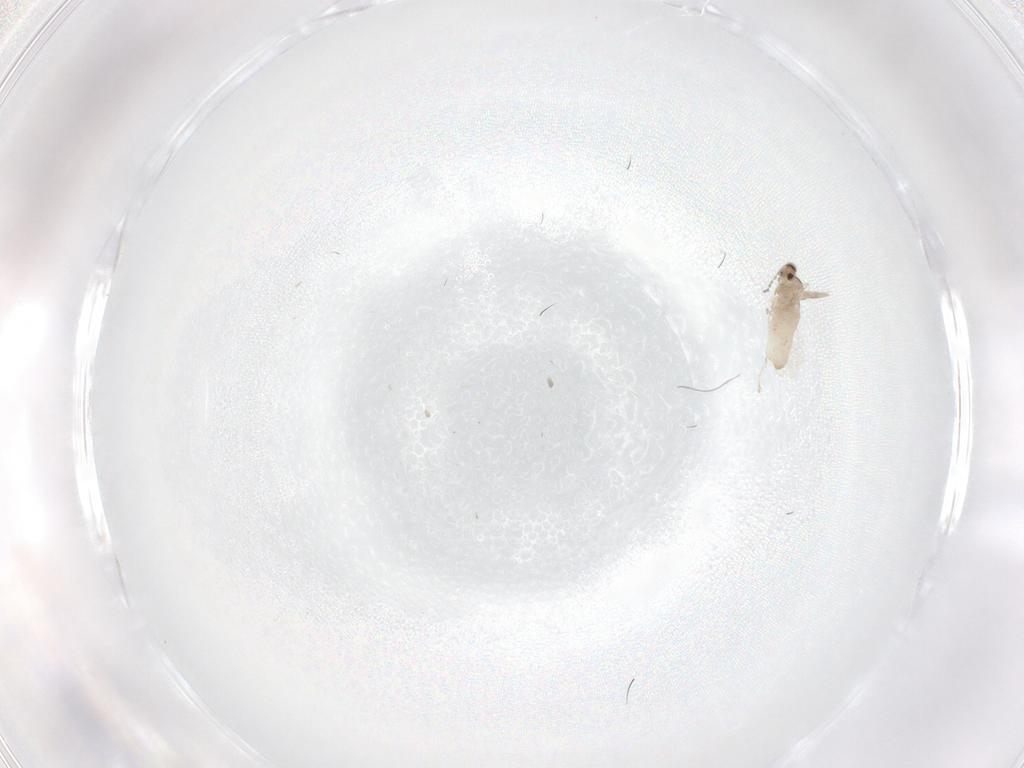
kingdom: Animalia
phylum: Arthropoda
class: Insecta
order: Diptera
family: Cecidomyiidae
